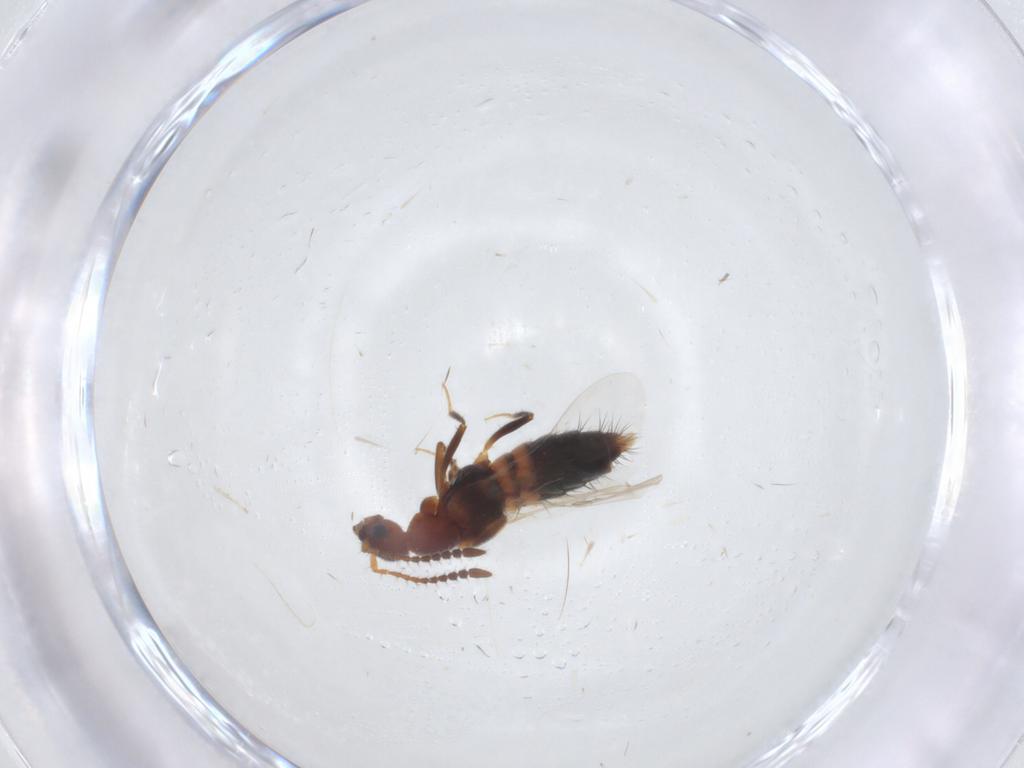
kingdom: Animalia
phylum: Arthropoda
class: Insecta
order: Coleoptera
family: Staphylinidae
